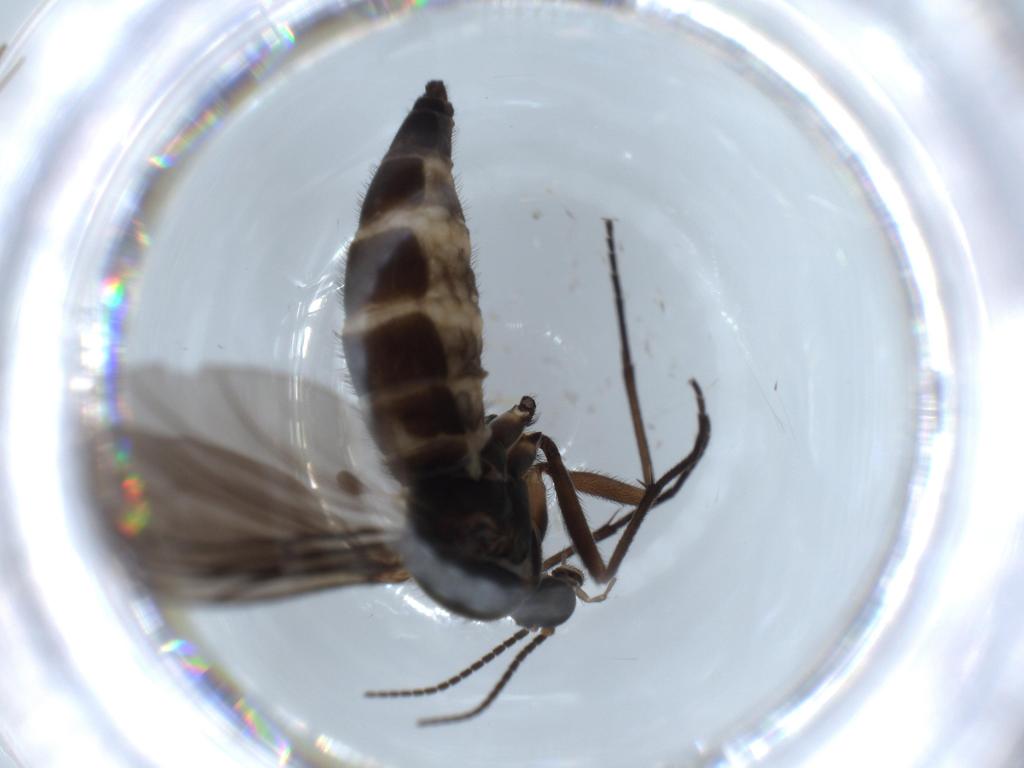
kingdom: Animalia
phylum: Arthropoda
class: Insecta
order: Diptera
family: Sciaridae
